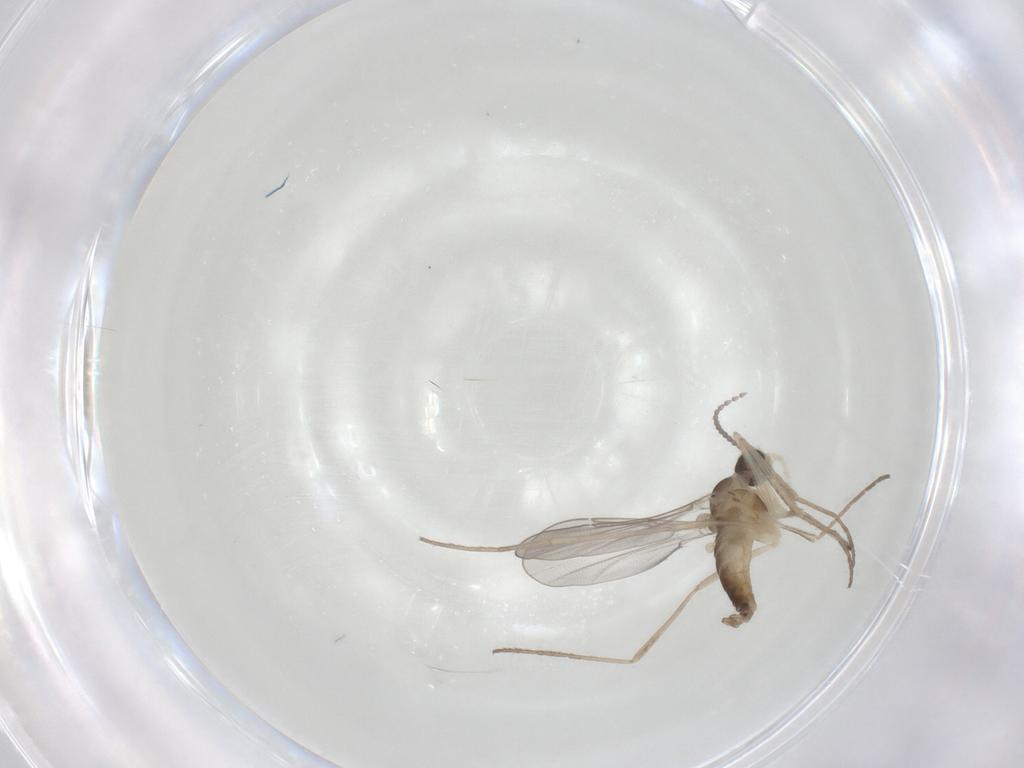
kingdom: Animalia
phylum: Arthropoda
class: Insecta
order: Diptera
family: Cecidomyiidae
